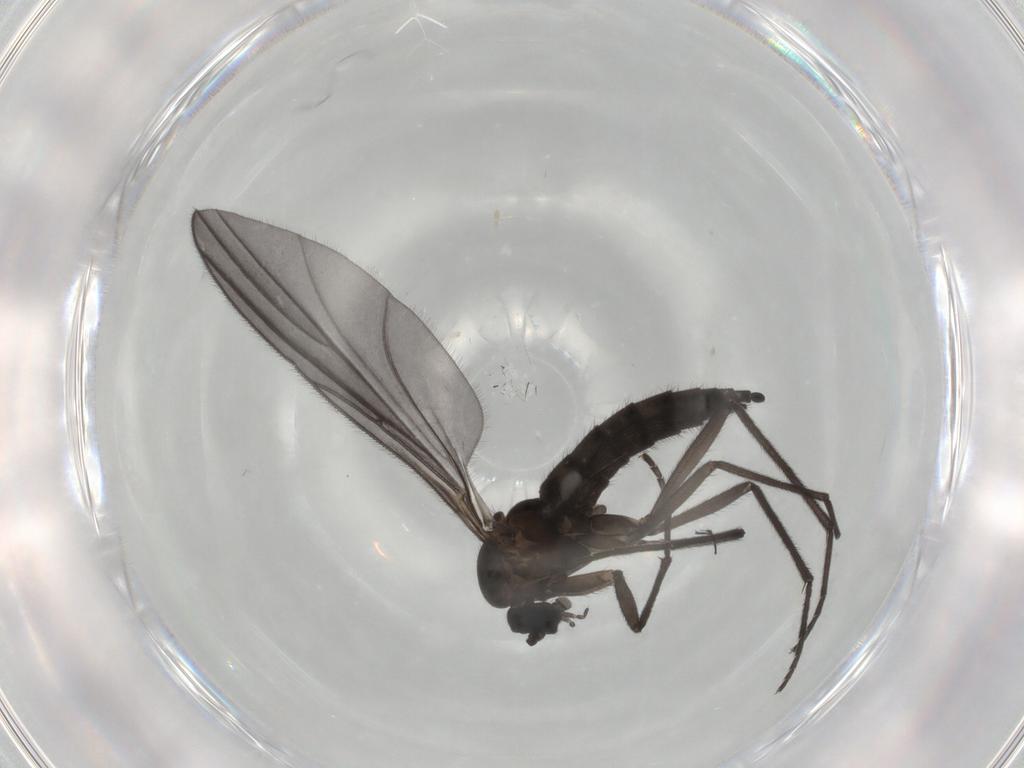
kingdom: Animalia
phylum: Arthropoda
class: Insecta
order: Diptera
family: Sciaridae
